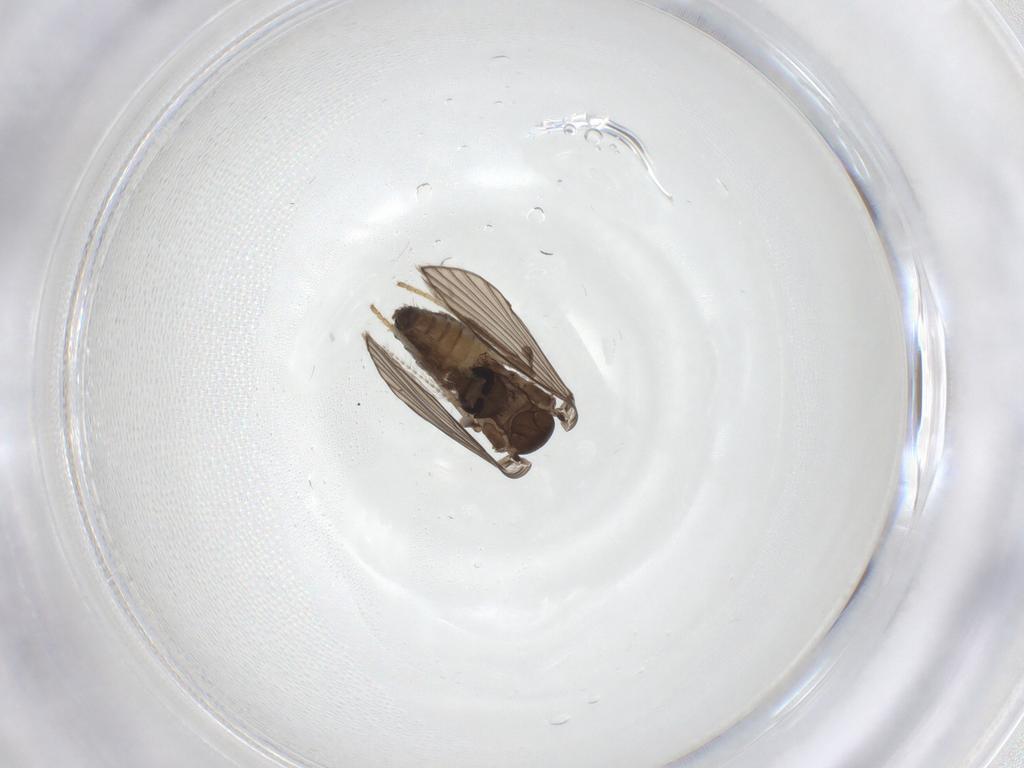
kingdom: Animalia
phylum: Arthropoda
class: Insecta
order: Diptera
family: Psychodidae
